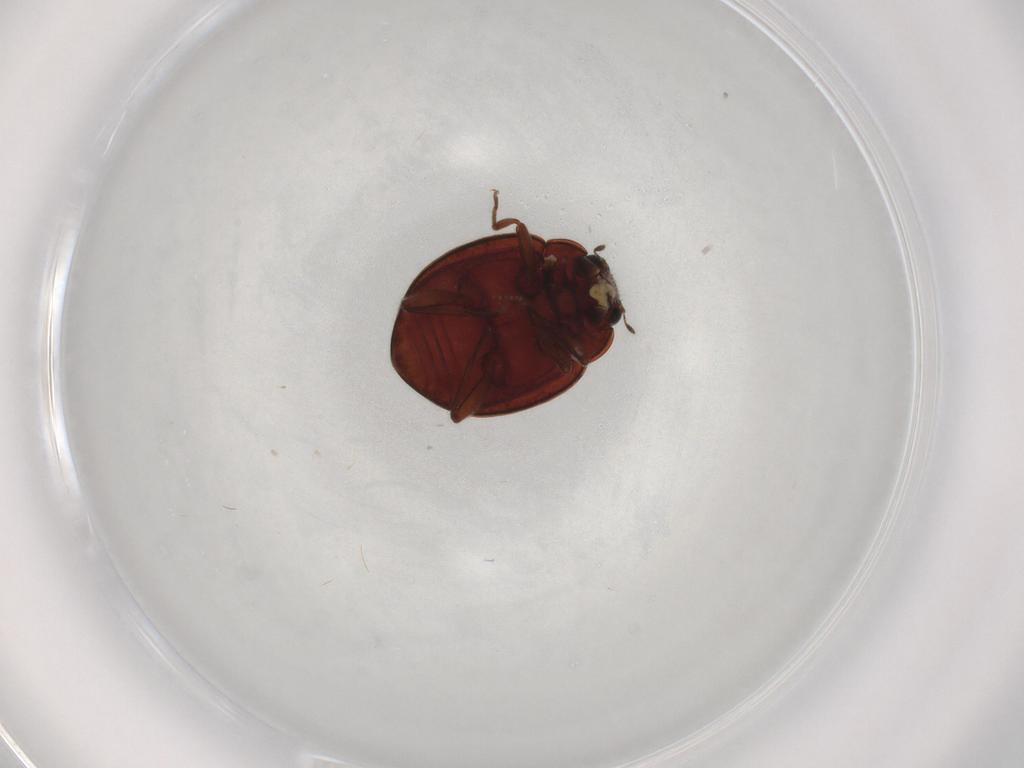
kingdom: Animalia
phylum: Arthropoda
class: Insecta
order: Coleoptera
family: Coccinellidae
